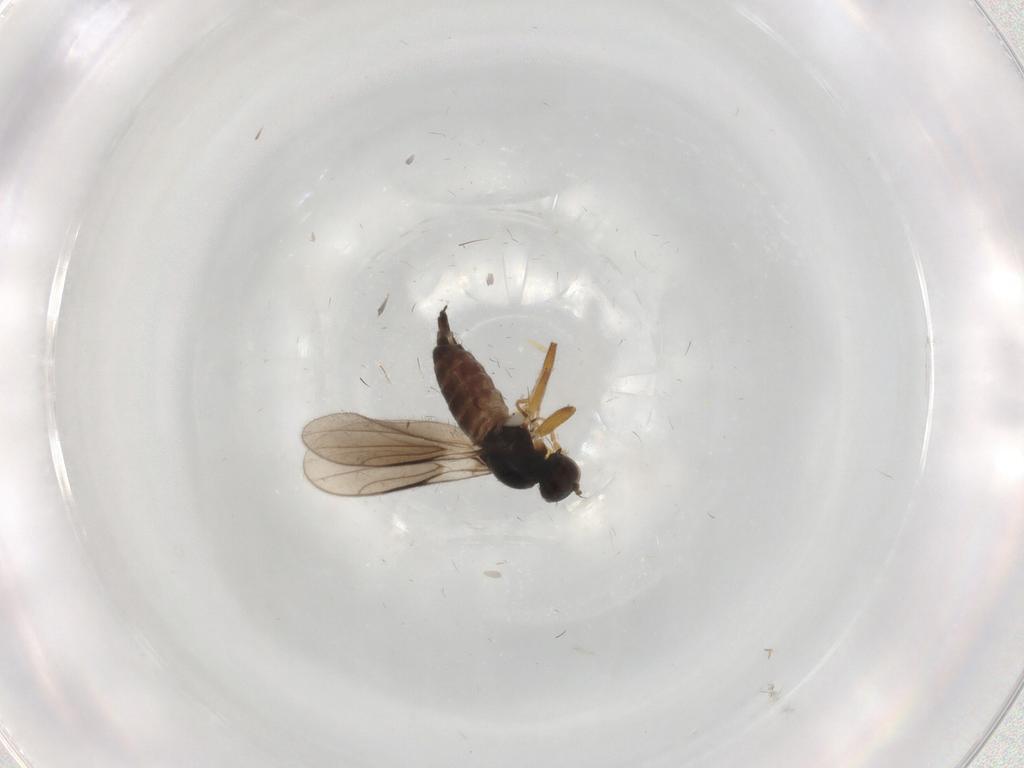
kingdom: Animalia
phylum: Arthropoda
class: Insecta
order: Diptera
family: Hybotidae
